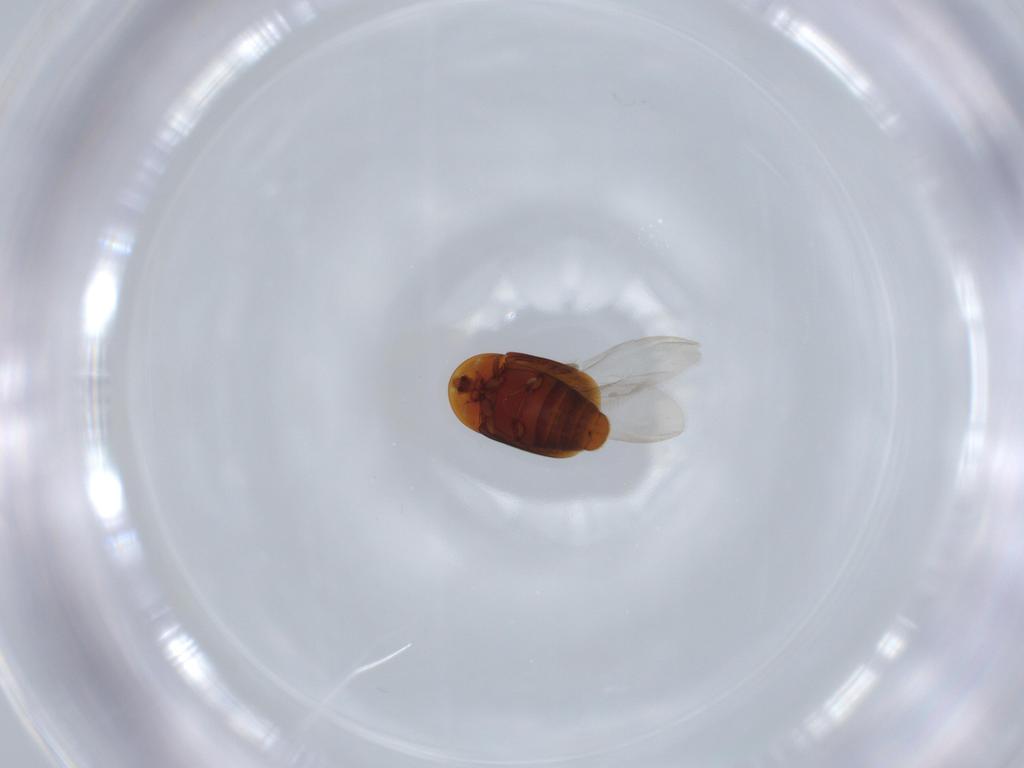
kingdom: Animalia
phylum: Arthropoda
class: Insecta
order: Coleoptera
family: Corylophidae
